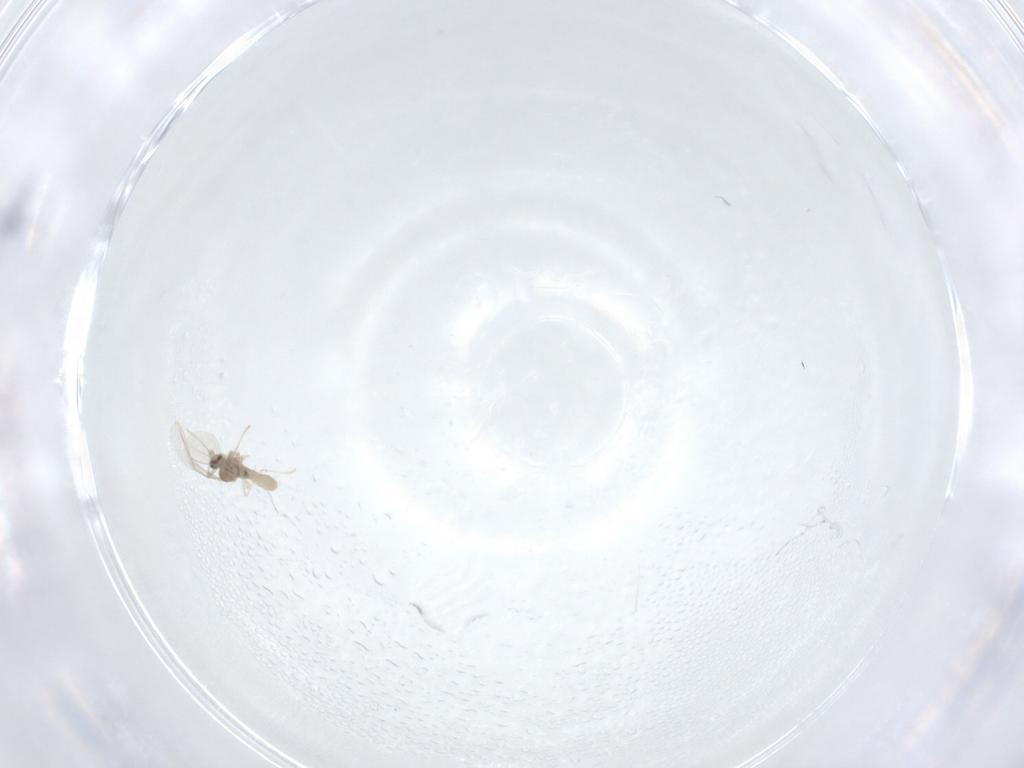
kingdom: Animalia
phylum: Arthropoda
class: Insecta
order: Diptera
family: Cecidomyiidae
